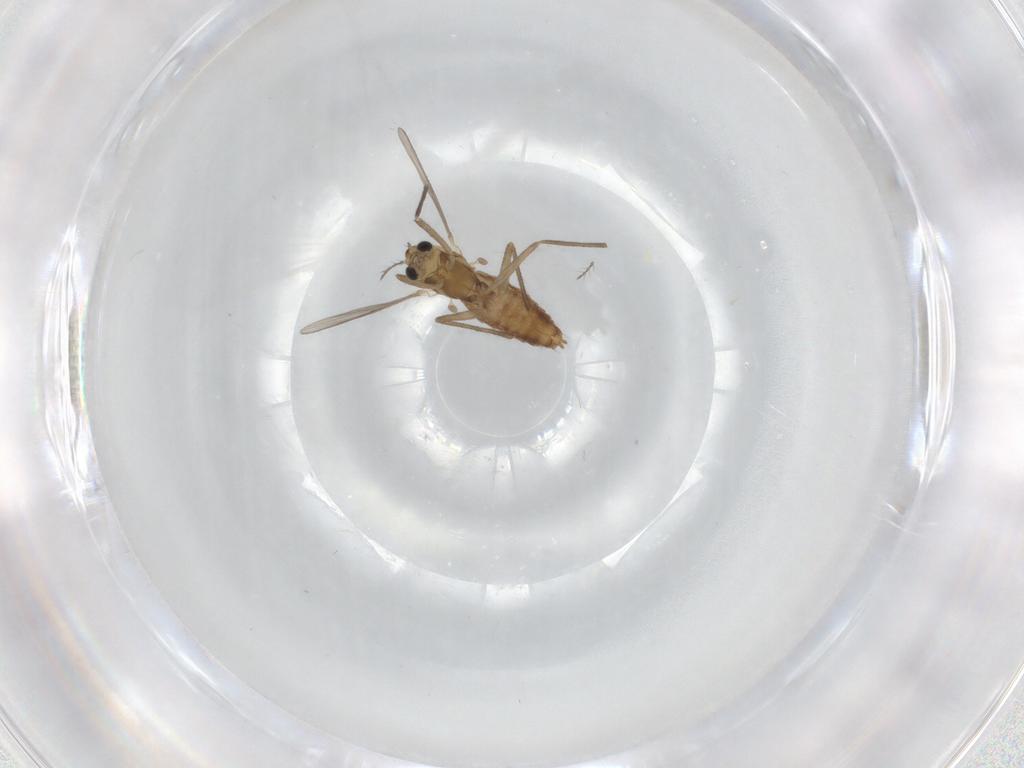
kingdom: Animalia
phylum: Arthropoda
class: Insecta
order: Diptera
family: Chironomidae
